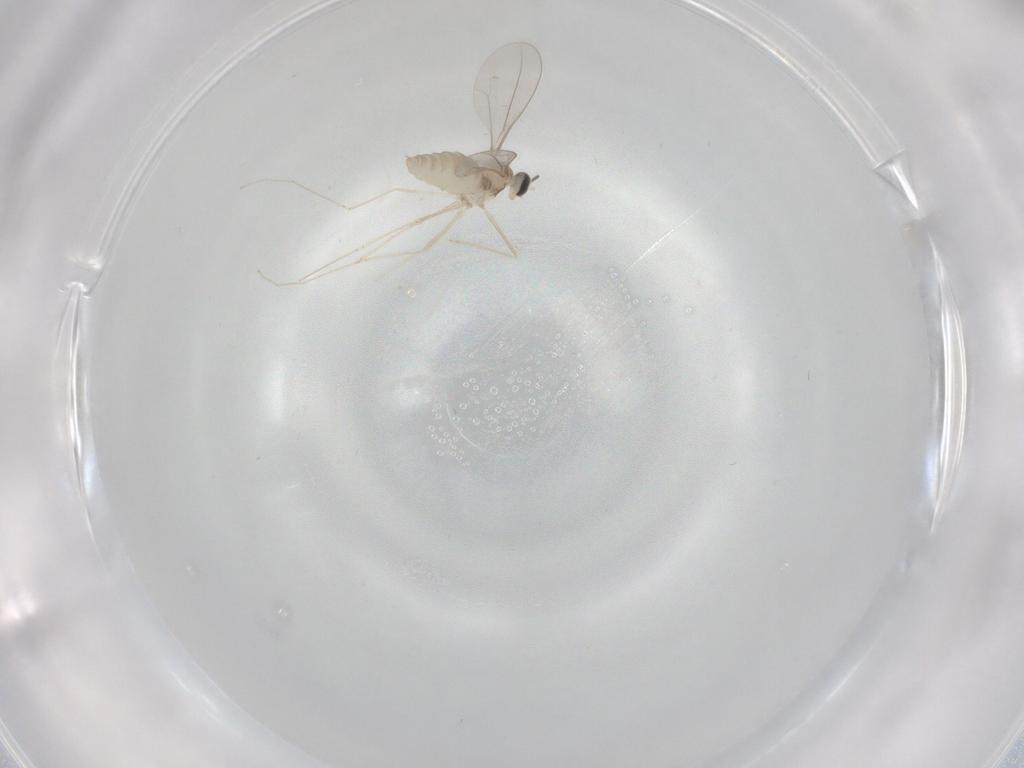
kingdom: Animalia
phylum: Arthropoda
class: Insecta
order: Diptera
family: Cecidomyiidae
